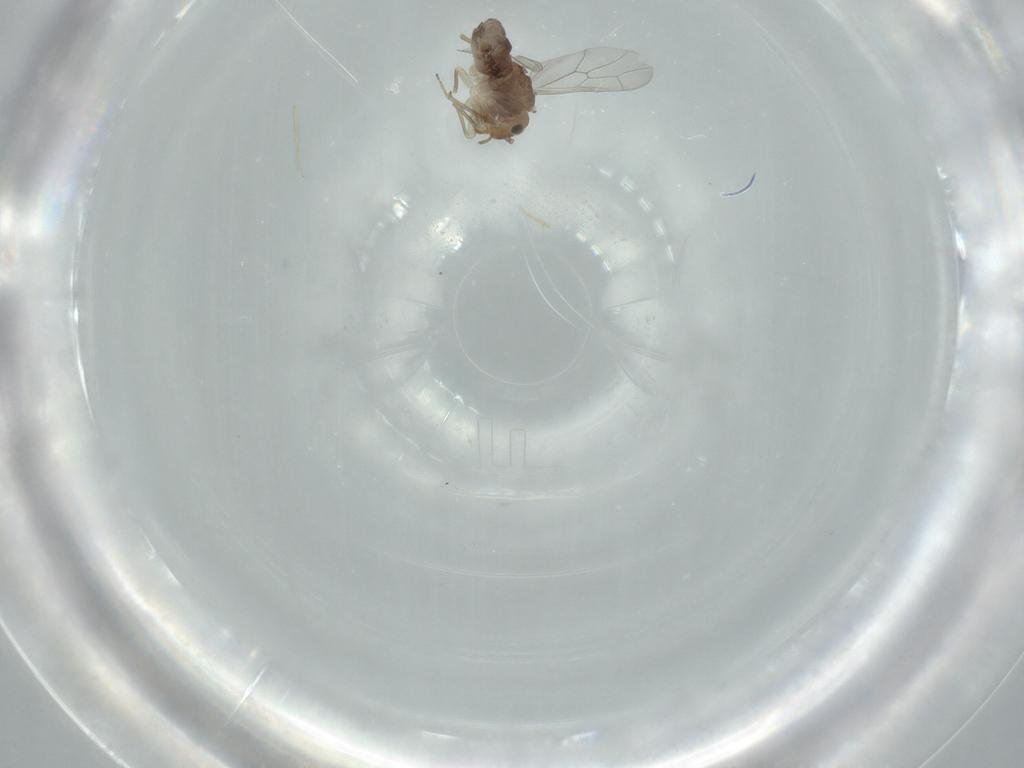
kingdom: Animalia
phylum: Arthropoda
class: Insecta
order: Psocodea
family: Ectopsocidae
